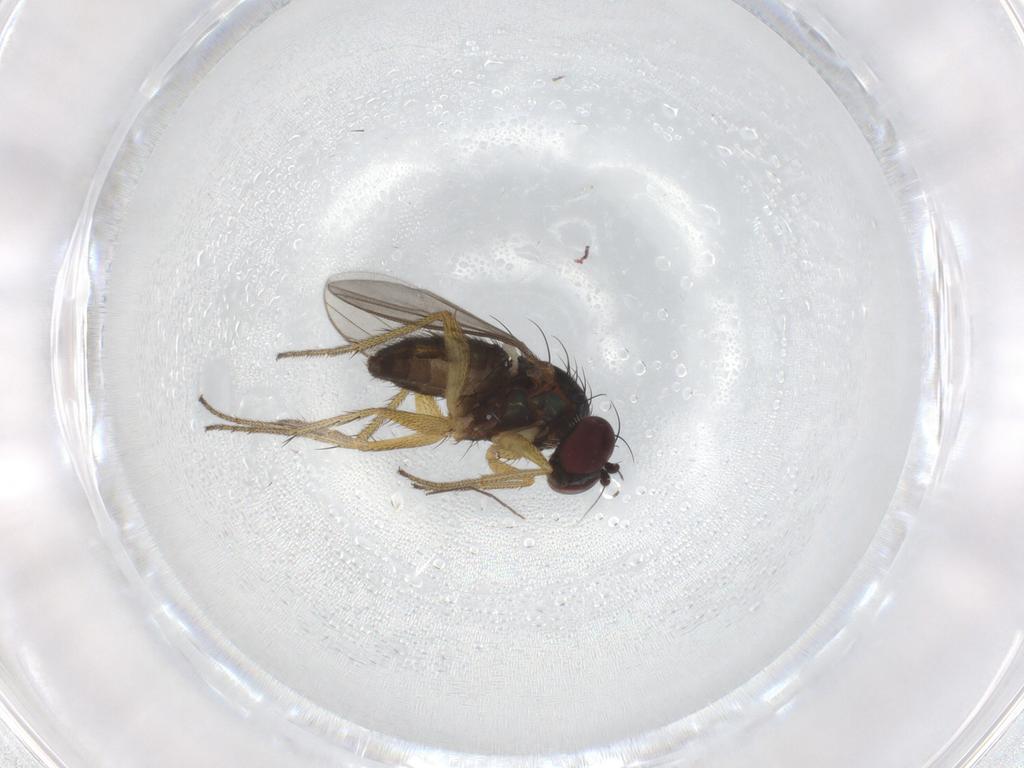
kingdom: Animalia
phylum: Arthropoda
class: Insecta
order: Diptera
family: Dolichopodidae
